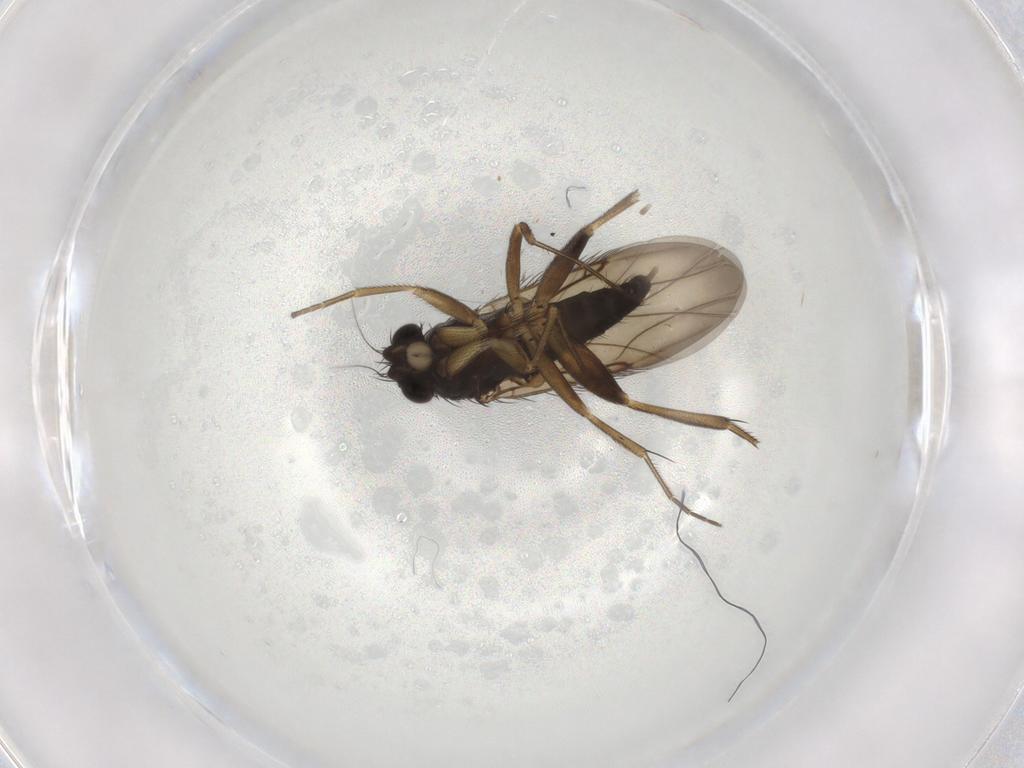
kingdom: Animalia
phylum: Arthropoda
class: Insecta
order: Diptera
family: Phoridae
